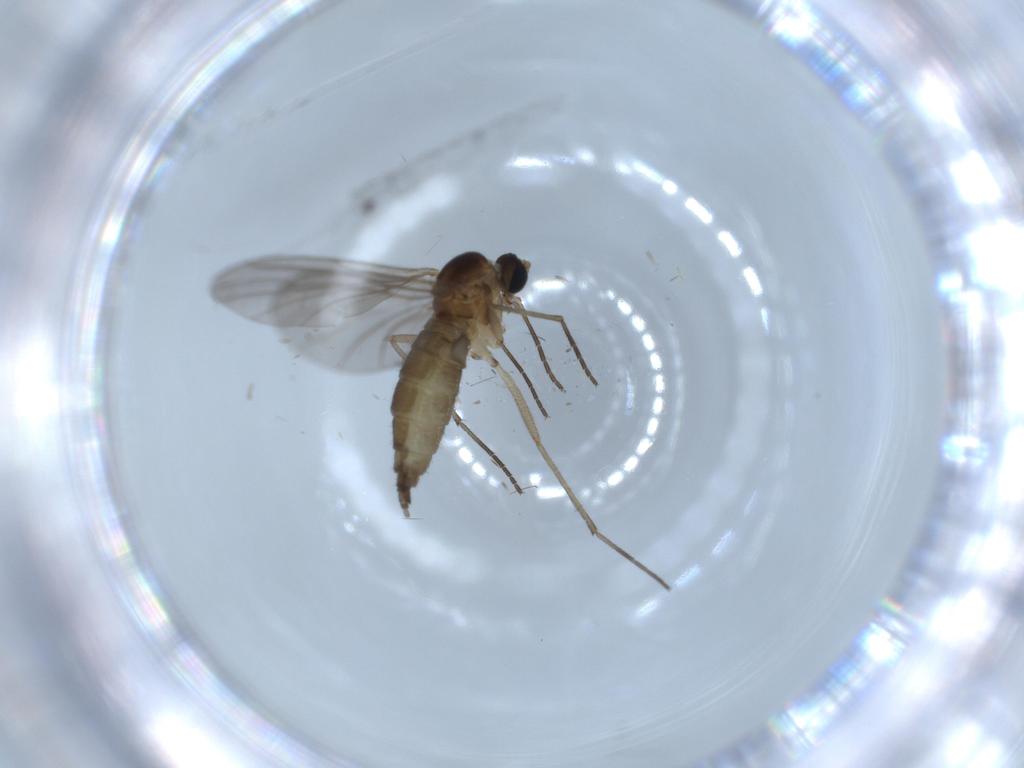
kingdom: Animalia
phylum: Arthropoda
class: Insecta
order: Diptera
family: Sciaridae
